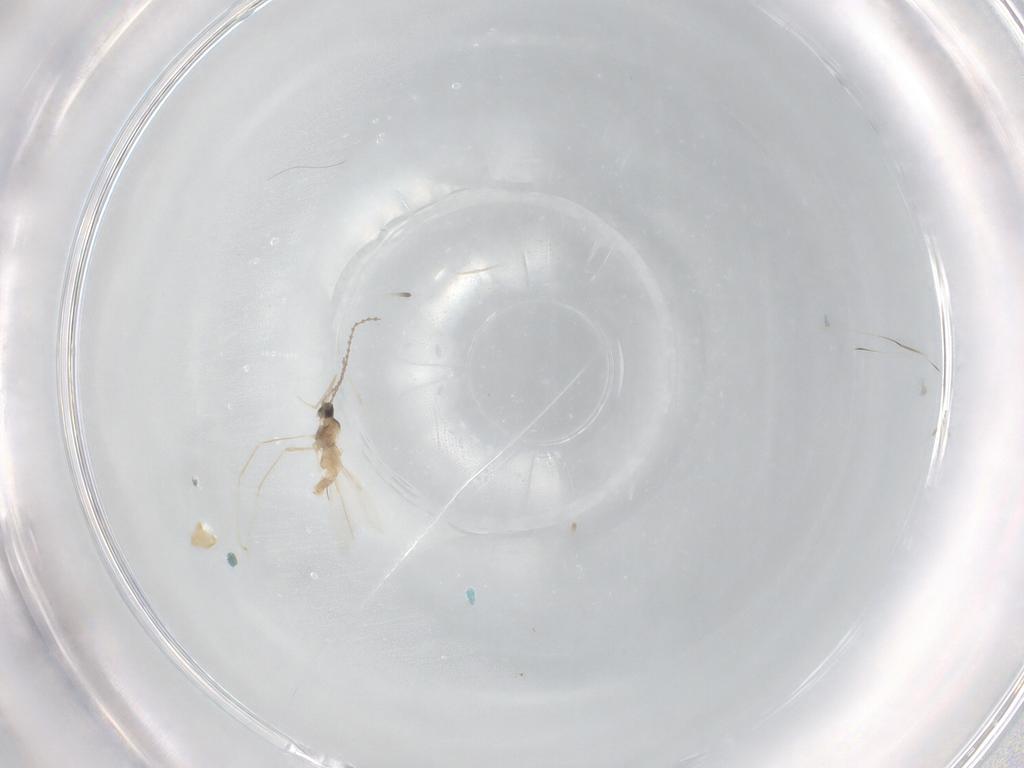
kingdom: Animalia
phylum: Arthropoda
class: Insecta
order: Diptera
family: Cecidomyiidae
